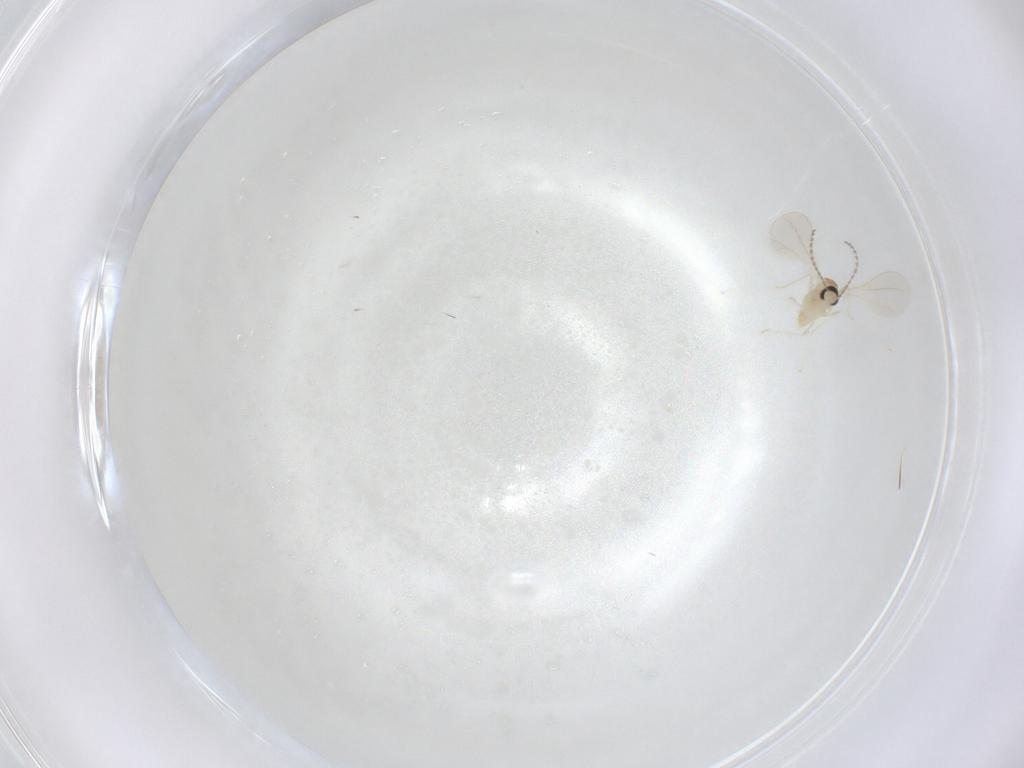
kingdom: Animalia
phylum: Arthropoda
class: Insecta
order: Diptera
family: Cecidomyiidae
